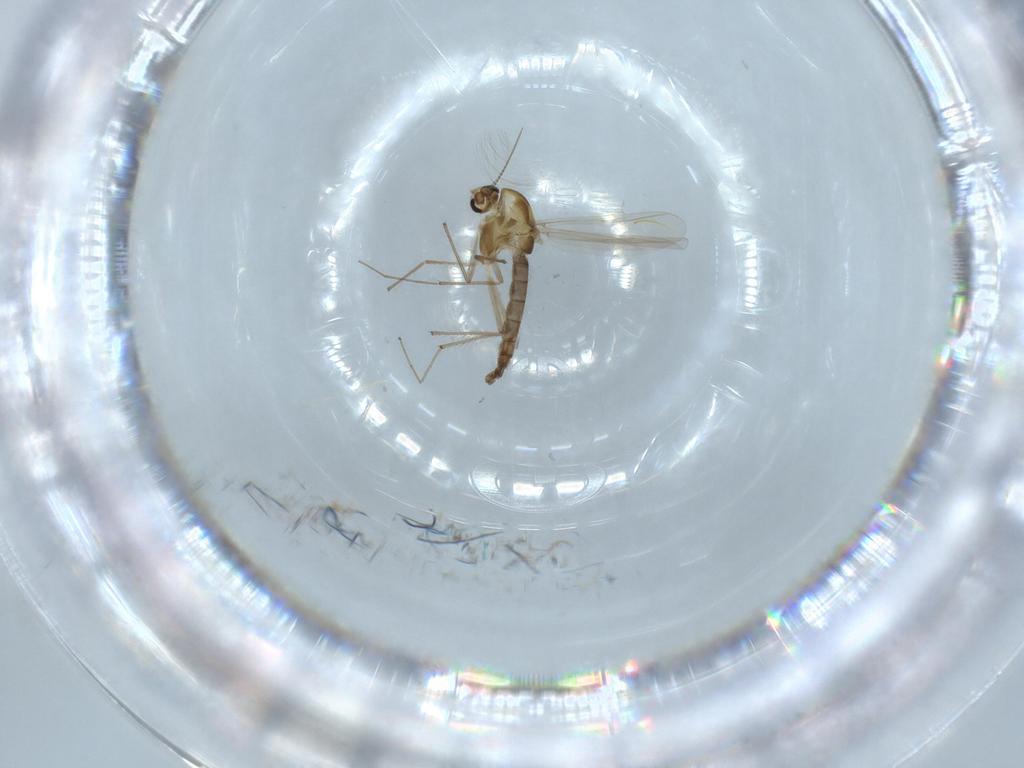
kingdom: Animalia
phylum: Arthropoda
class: Insecta
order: Diptera
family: Chironomidae
